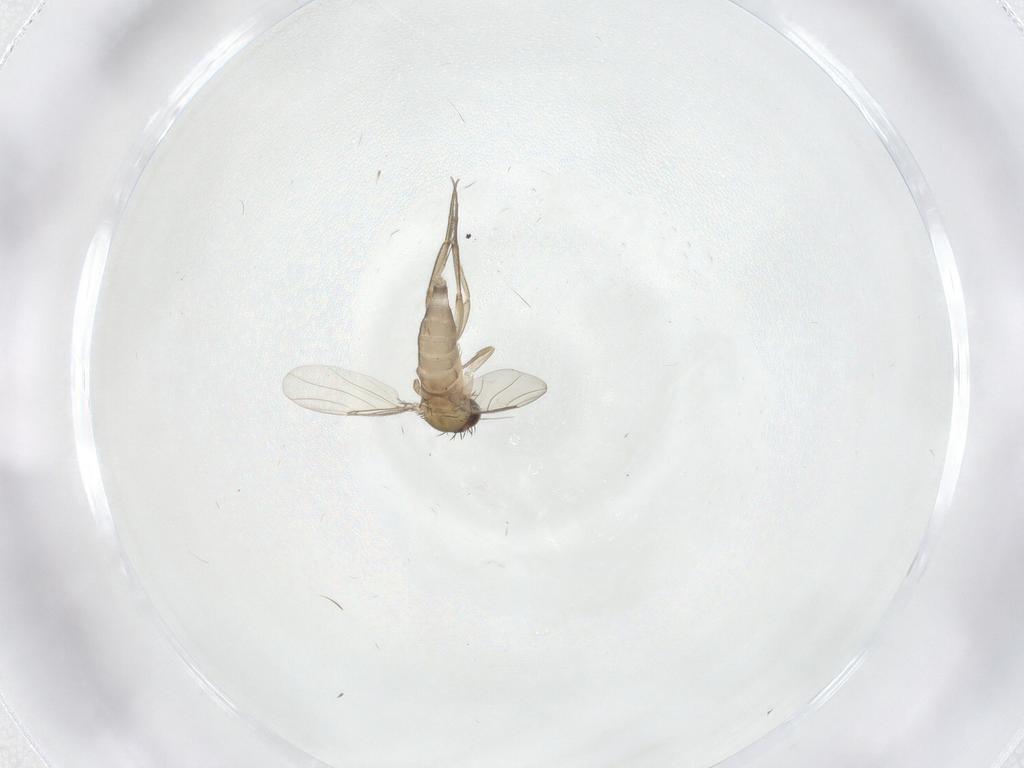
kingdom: Animalia
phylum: Arthropoda
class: Insecta
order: Diptera
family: Phoridae
